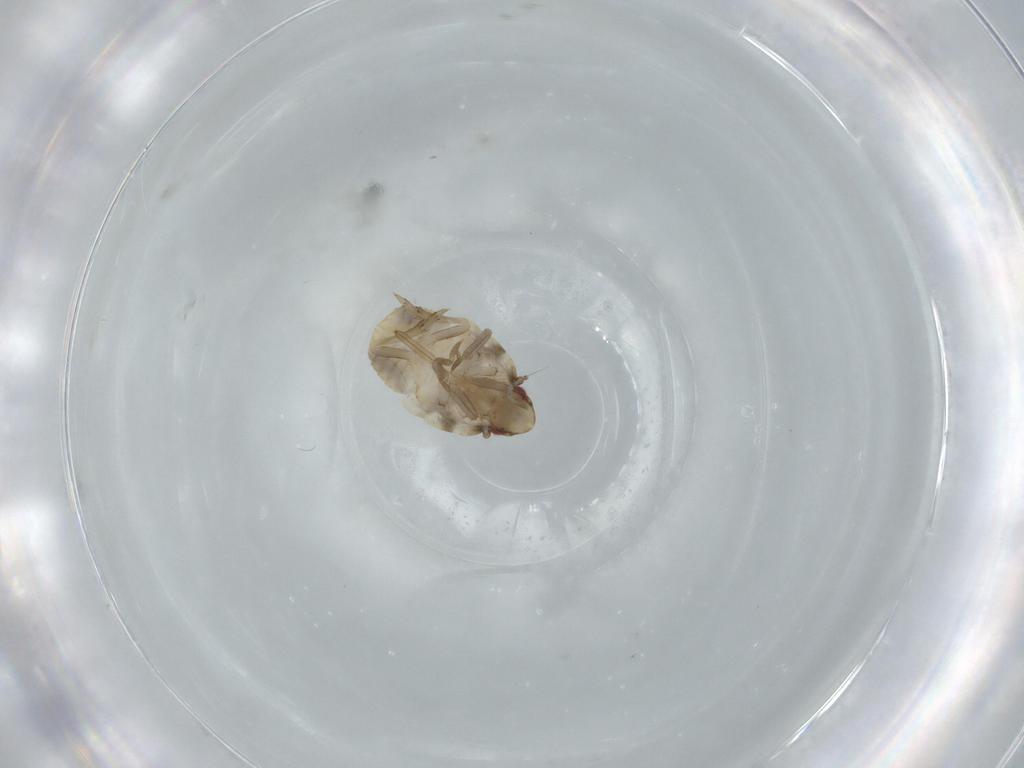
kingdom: Animalia
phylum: Arthropoda
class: Insecta
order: Hemiptera
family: Flatidae
